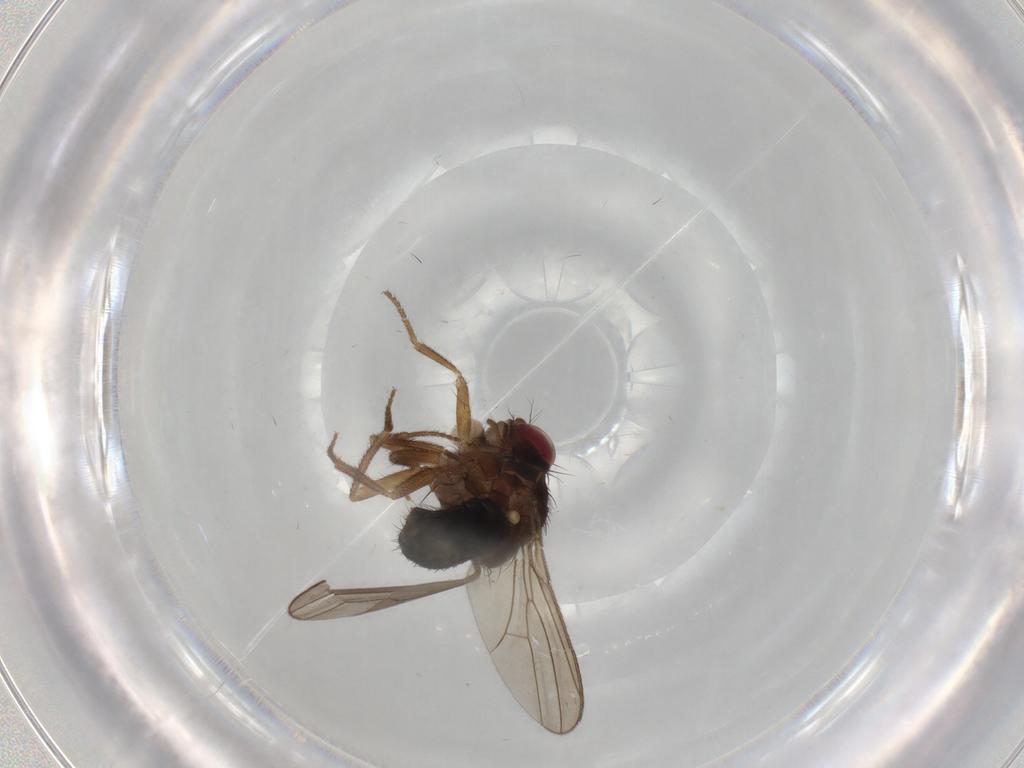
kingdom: Animalia
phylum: Arthropoda
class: Insecta
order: Diptera
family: Drosophilidae
